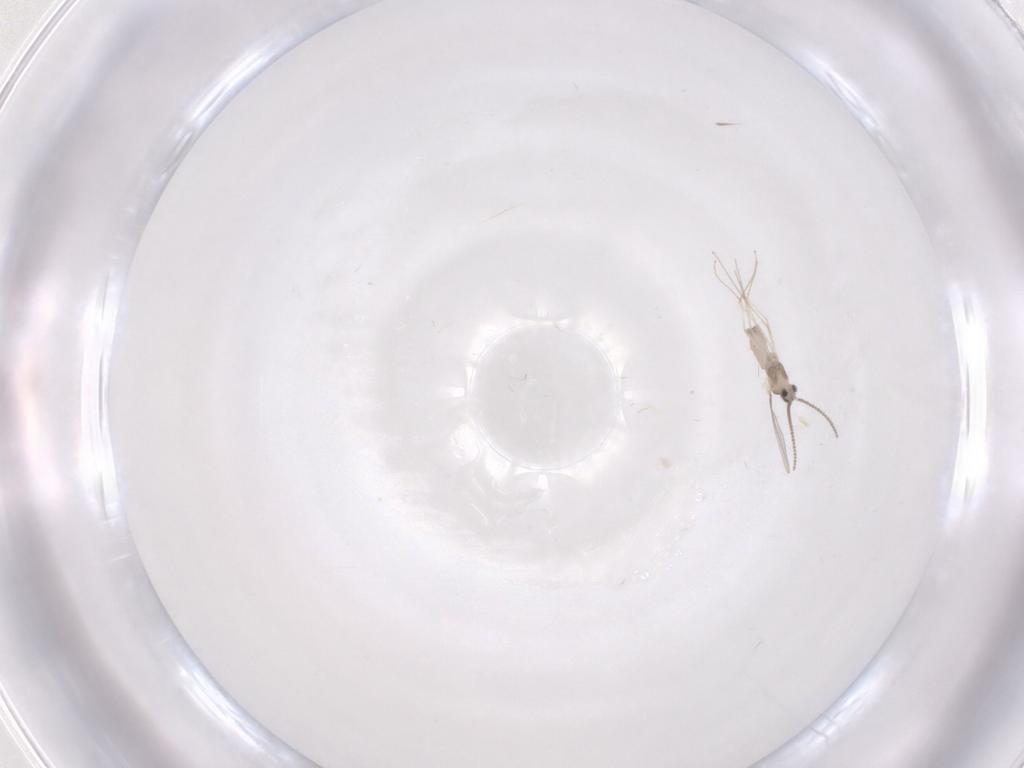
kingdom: Animalia
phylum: Arthropoda
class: Insecta
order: Diptera
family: Cecidomyiidae
